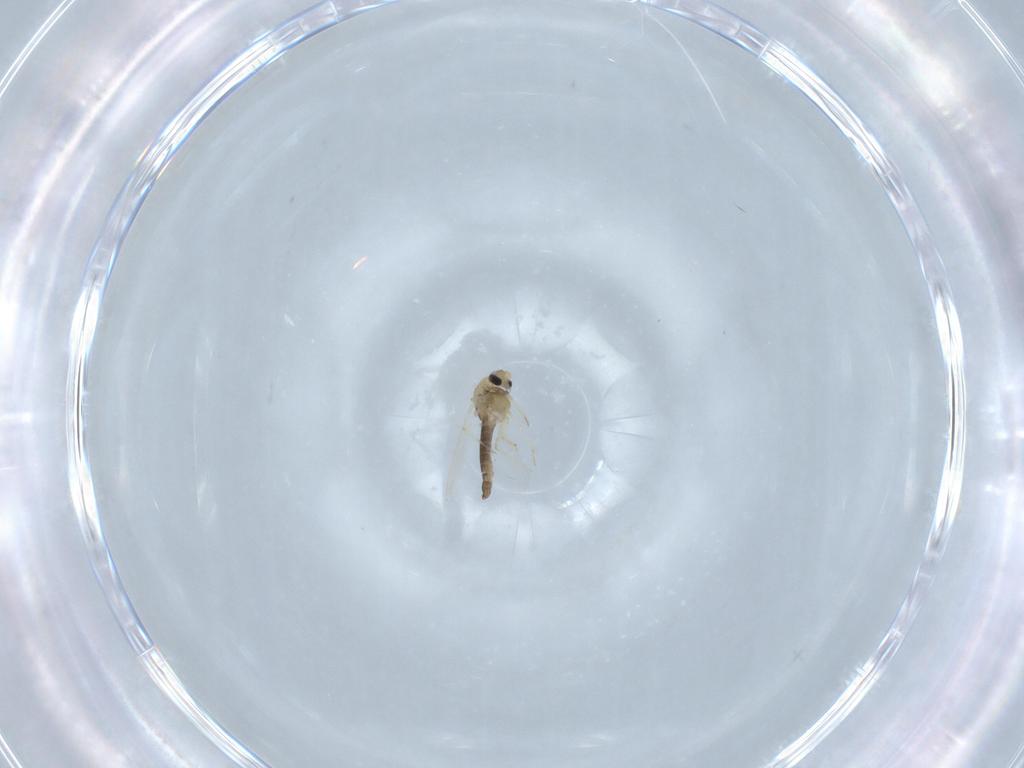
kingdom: Animalia
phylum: Arthropoda
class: Insecta
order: Diptera
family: Chironomidae
